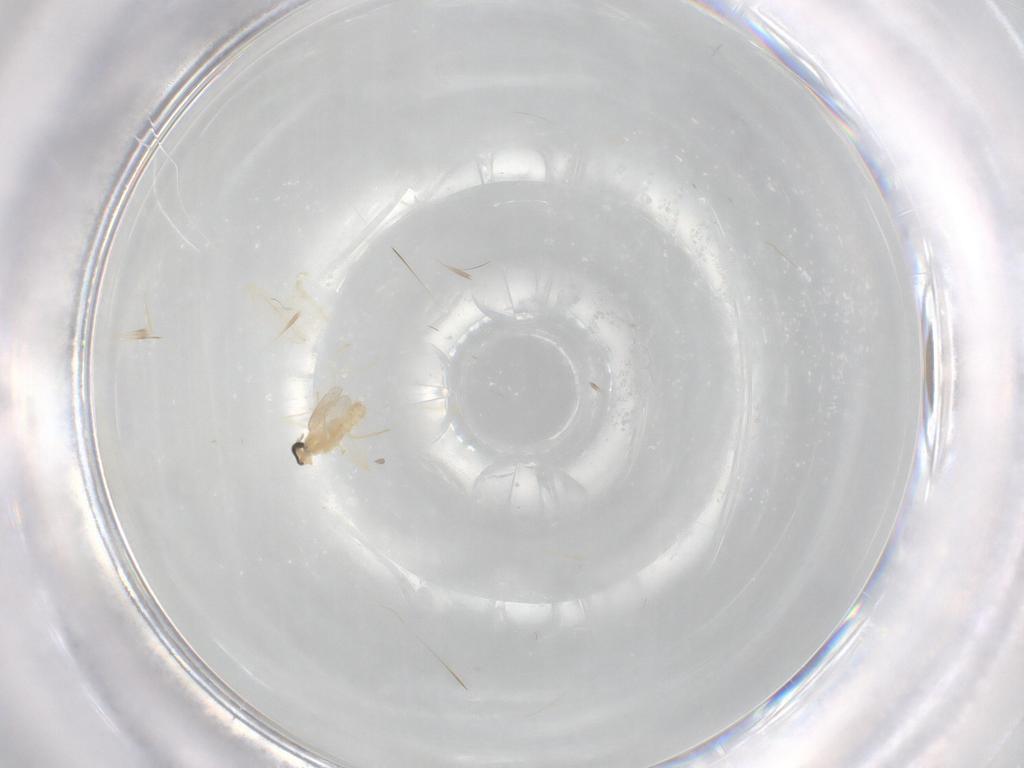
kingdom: Animalia
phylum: Arthropoda
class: Insecta
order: Diptera
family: Cecidomyiidae
